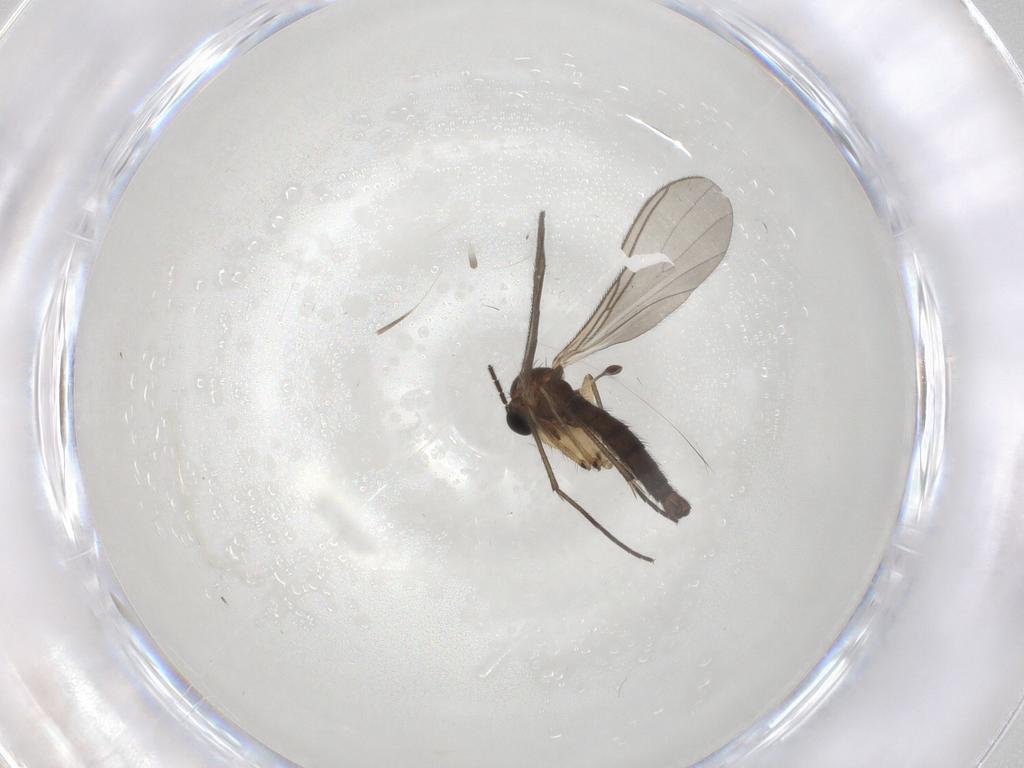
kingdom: Animalia
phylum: Arthropoda
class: Insecta
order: Diptera
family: Sciaridae
